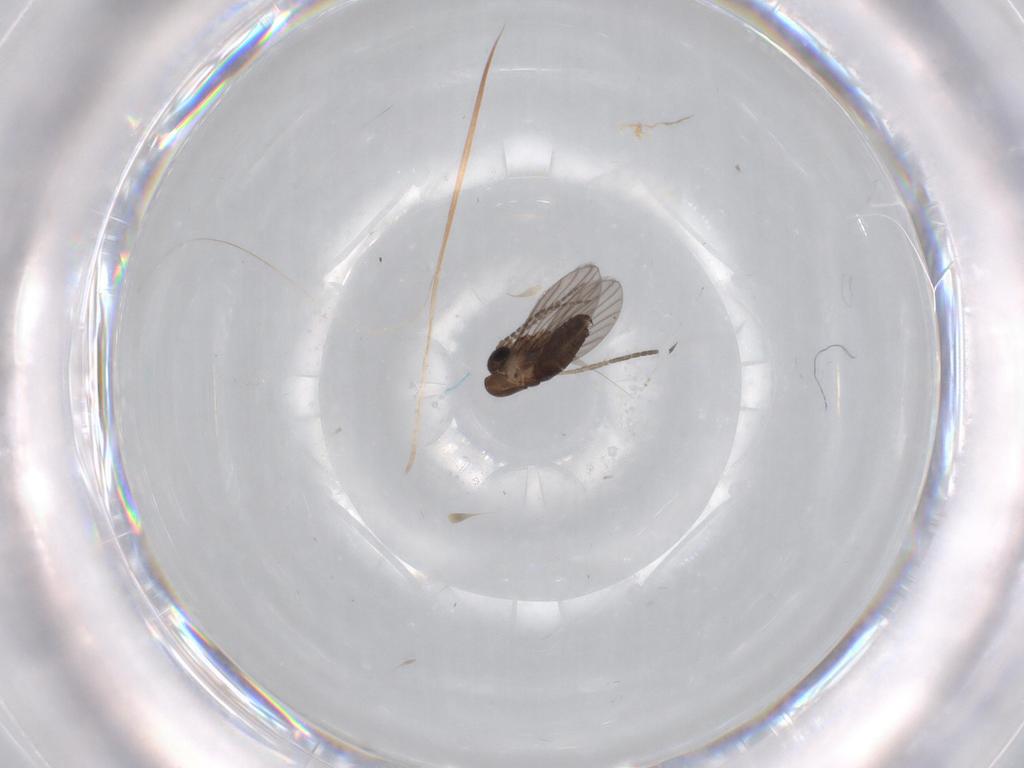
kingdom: Animalia
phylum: Arthropoda
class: Insecta
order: Diptera
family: Psychodidae
